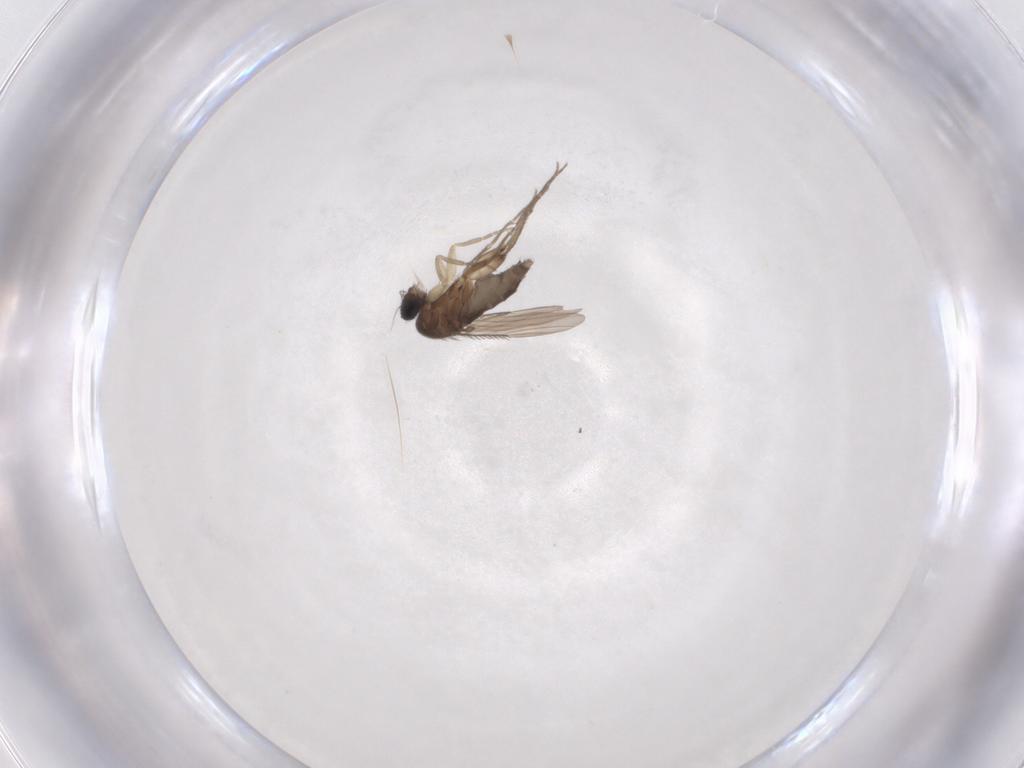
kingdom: Animalia
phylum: Arthropoda
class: Insecta
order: Diptera
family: Phoridae
